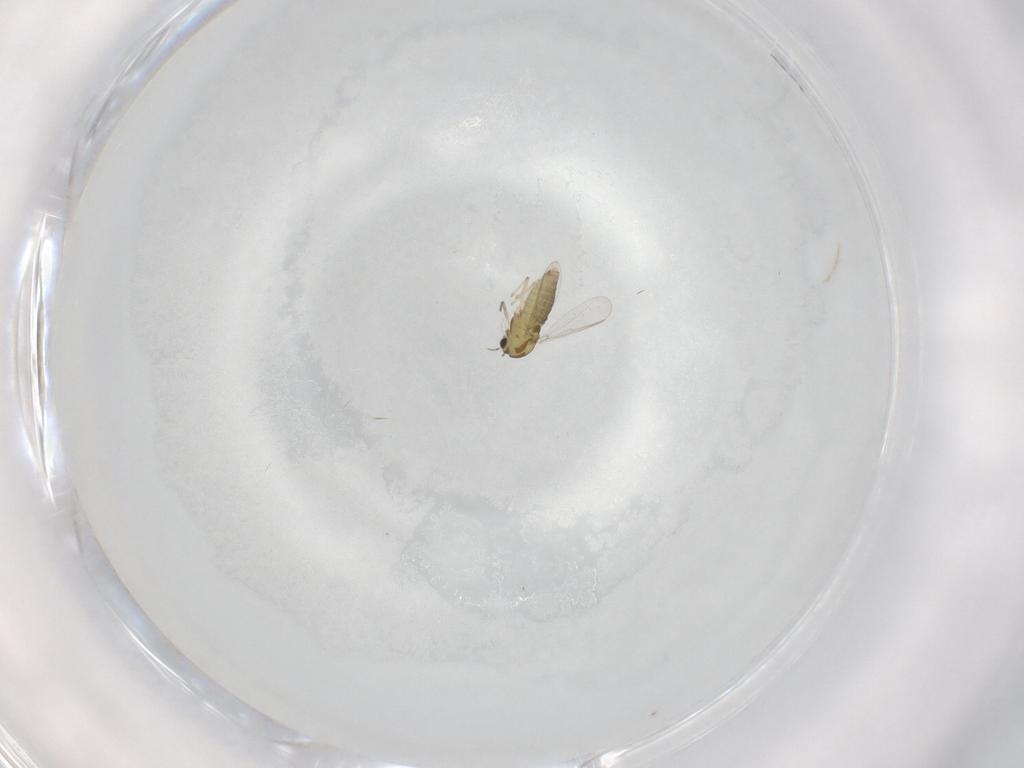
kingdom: Animalia
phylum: Arthropoda
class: Insecta
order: Diptera
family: Chironomidae
